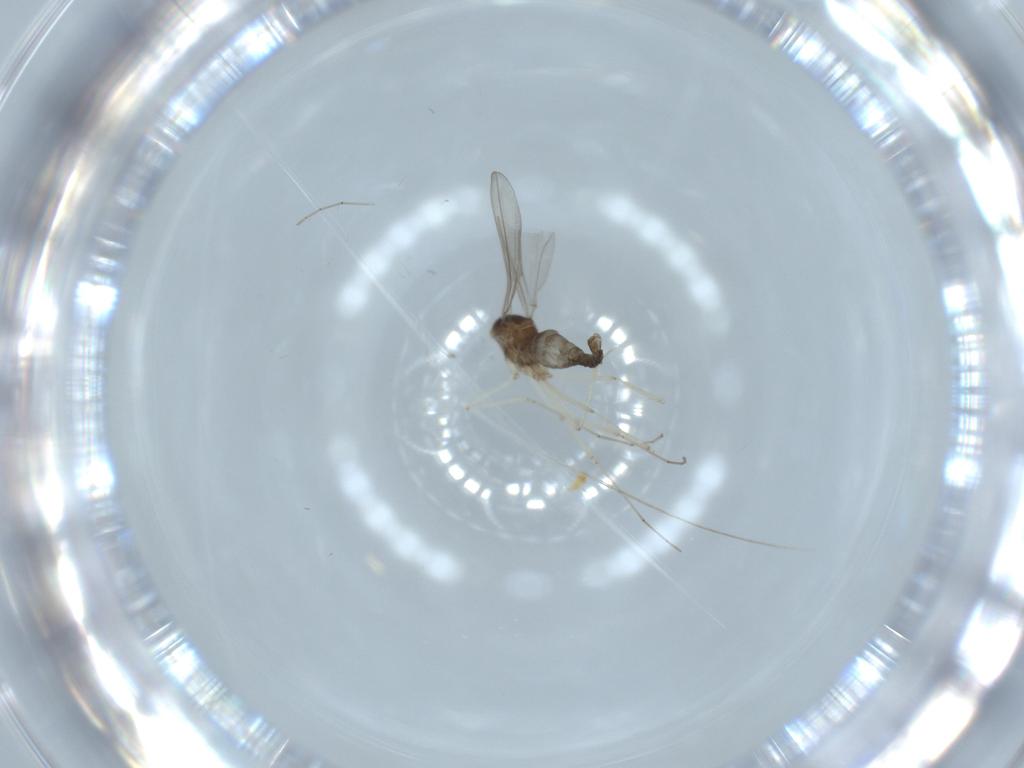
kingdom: Animalia
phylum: Arthropoda
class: Insecta
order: Diptera
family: Cecidomyiidae
